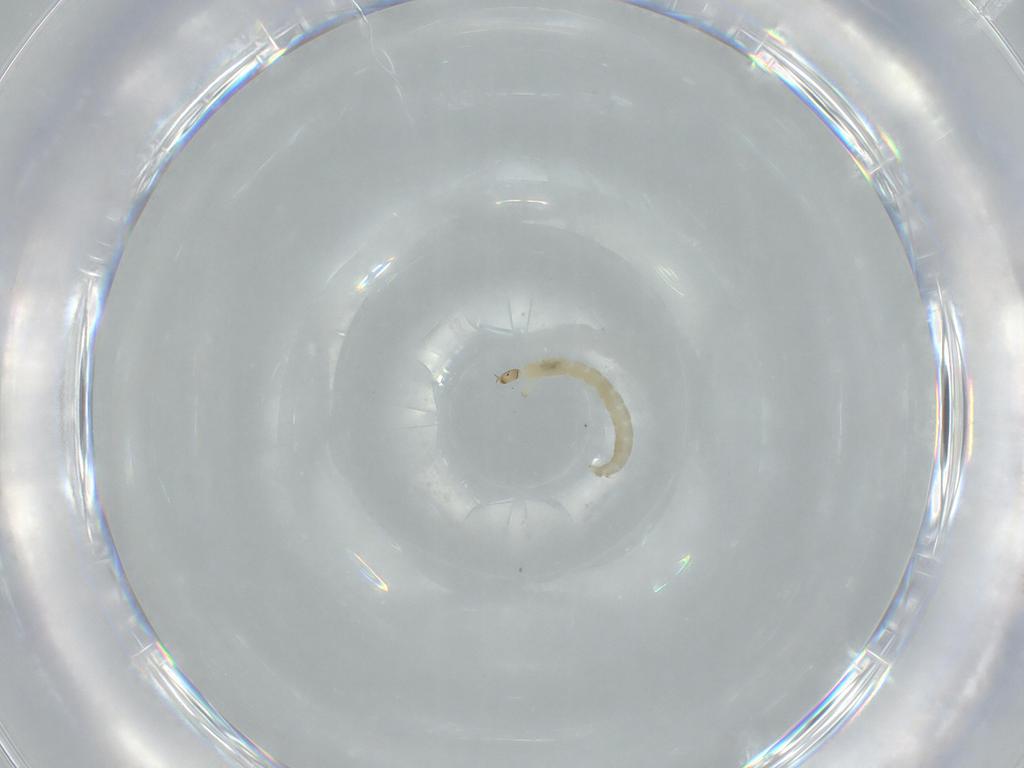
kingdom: Animalia
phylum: Arthropoda
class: Insecta
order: Diptera
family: Chironomidae
